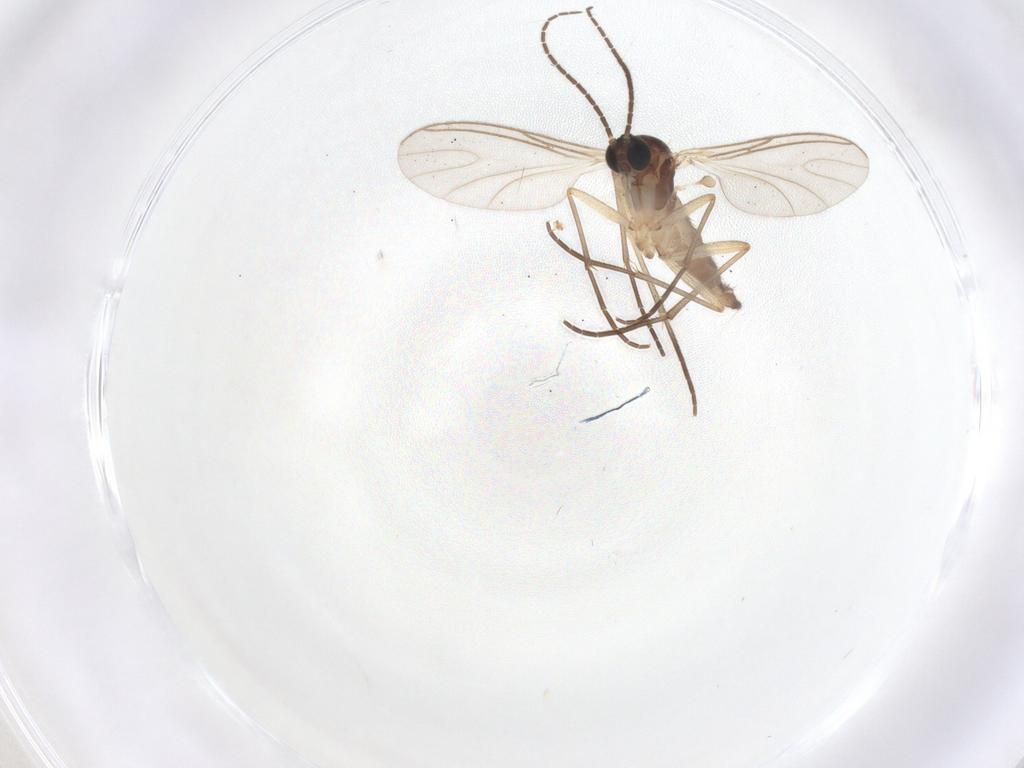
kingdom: Animalia
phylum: Arthropoda
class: Insecta
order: Diptera
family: Sciaridae
